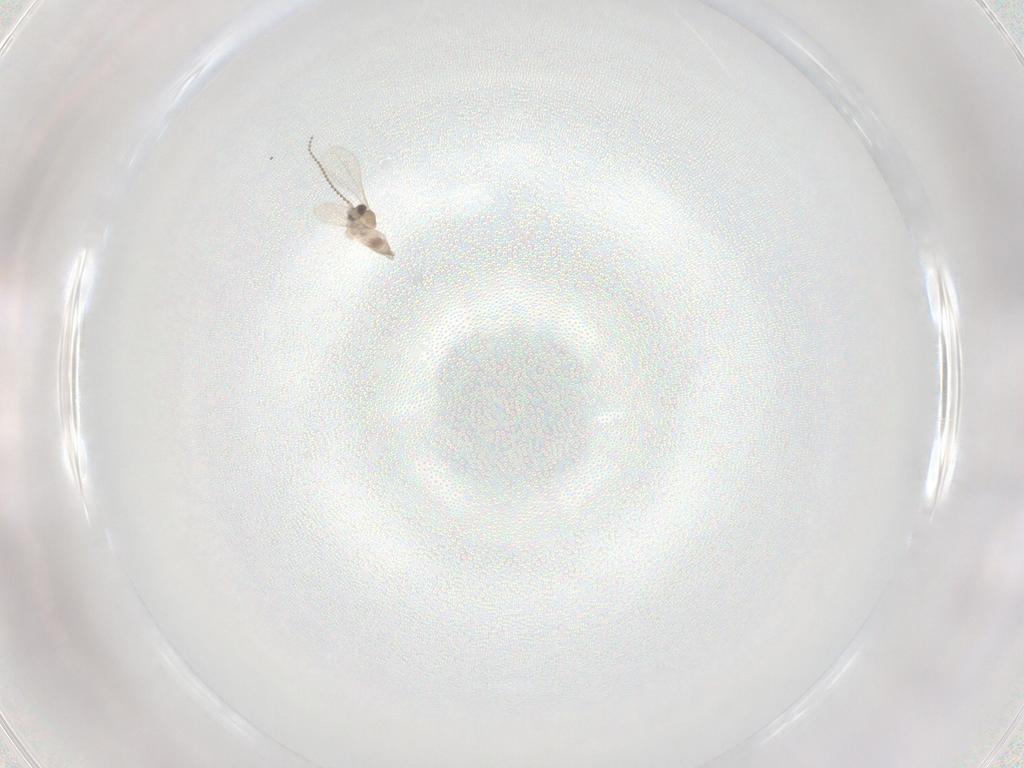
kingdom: Animalia
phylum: Arthropoda
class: Insecta
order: Diptera
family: Cecidomyiidae
